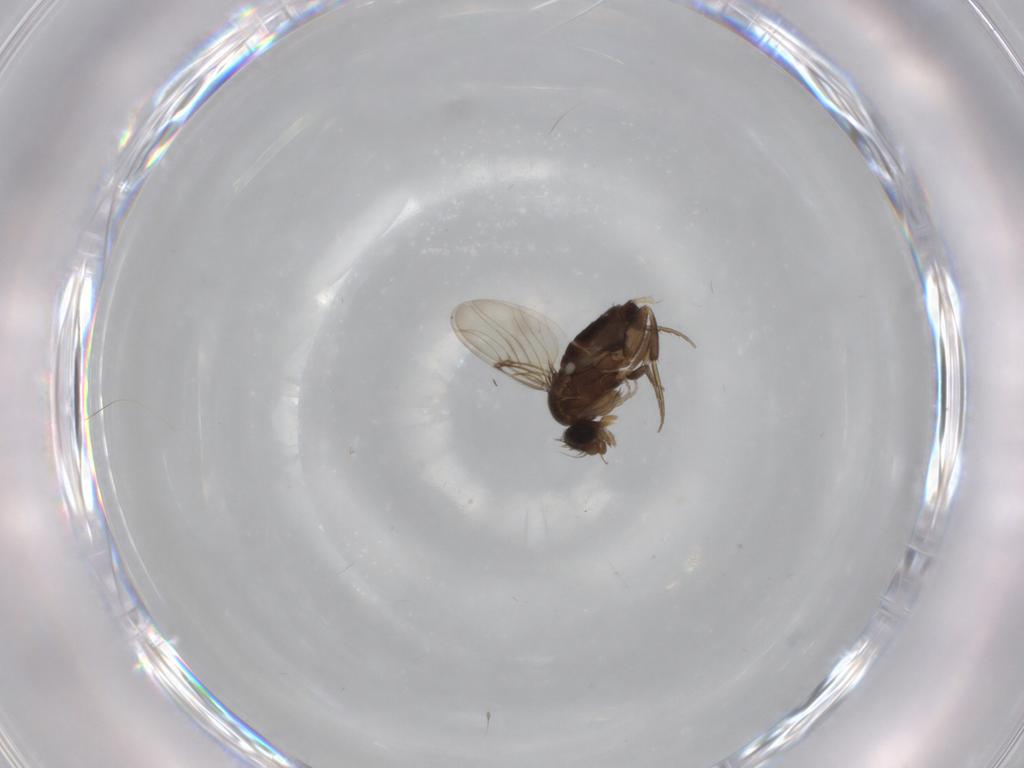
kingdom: Animalia
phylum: Arthropoda
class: Insecta
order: Diptera
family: Phoridae
